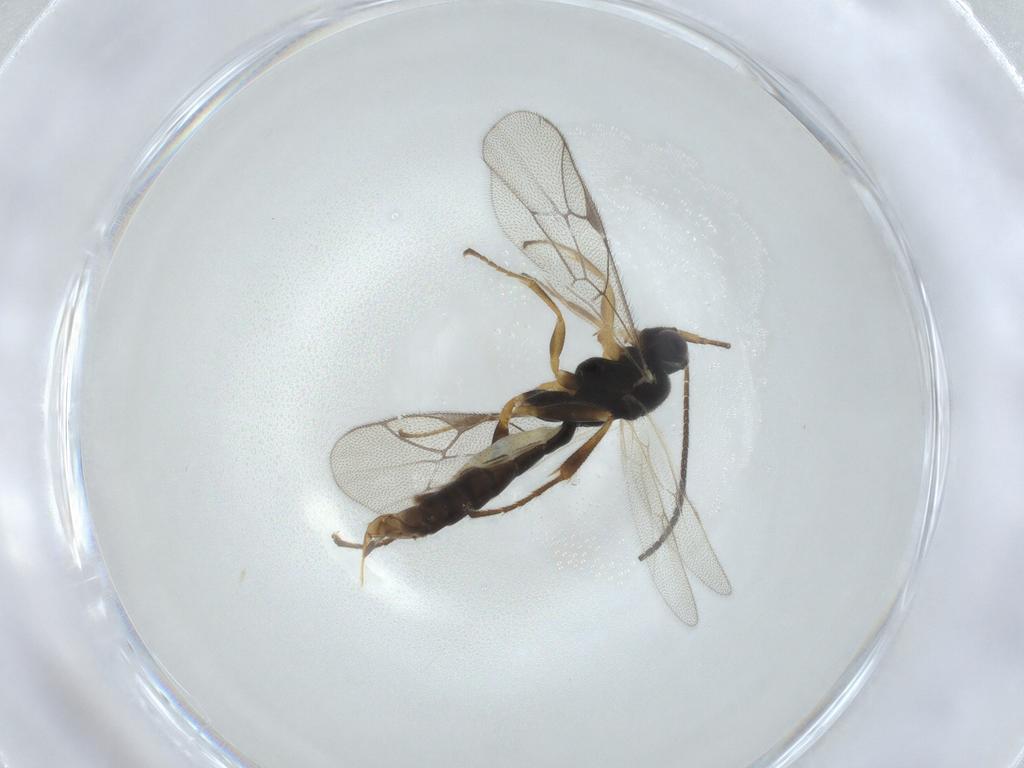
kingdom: Animalia
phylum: Arthropoda
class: Insecta
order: Hymenoptera
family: Ichneumonidae
